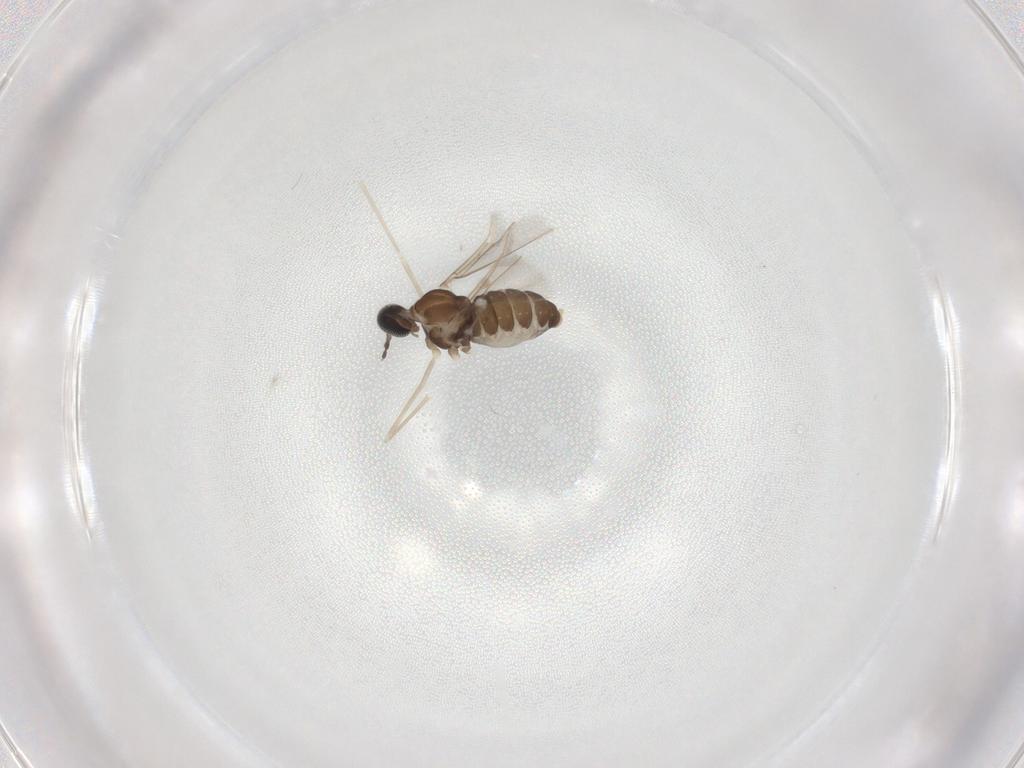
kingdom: Animalia
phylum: Arthropoda
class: Insecta
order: Diptera
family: Cecidomyiidae
